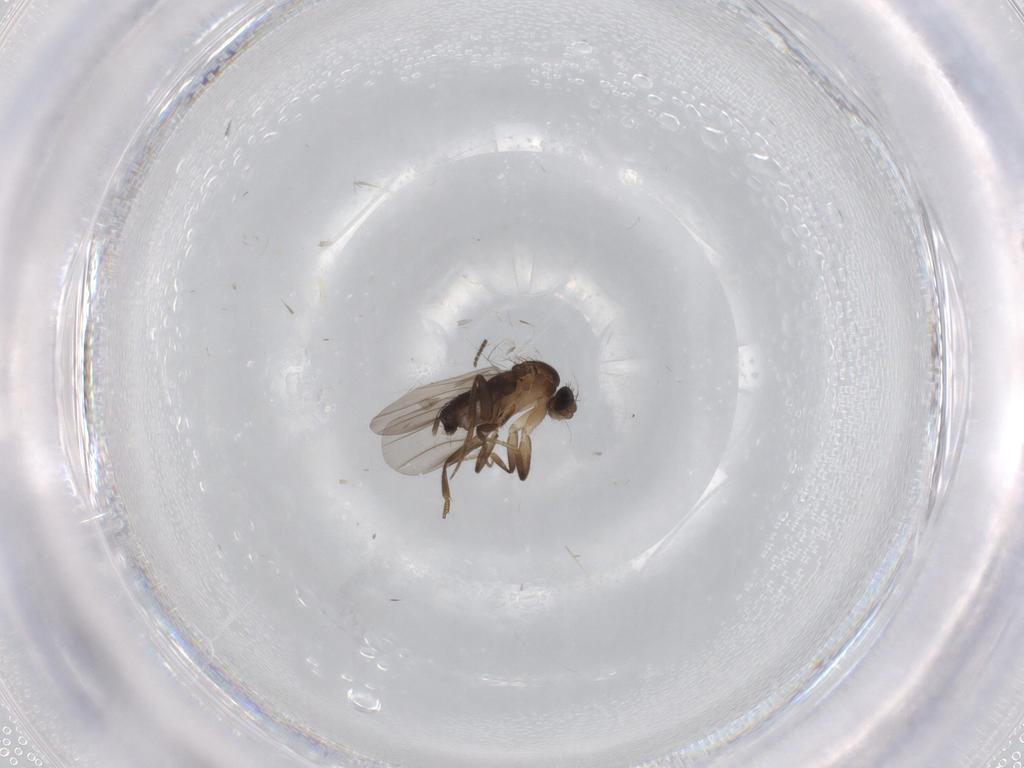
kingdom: Animalia
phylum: Arthropoda
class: Insecta
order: Diptera
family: Phoridae
